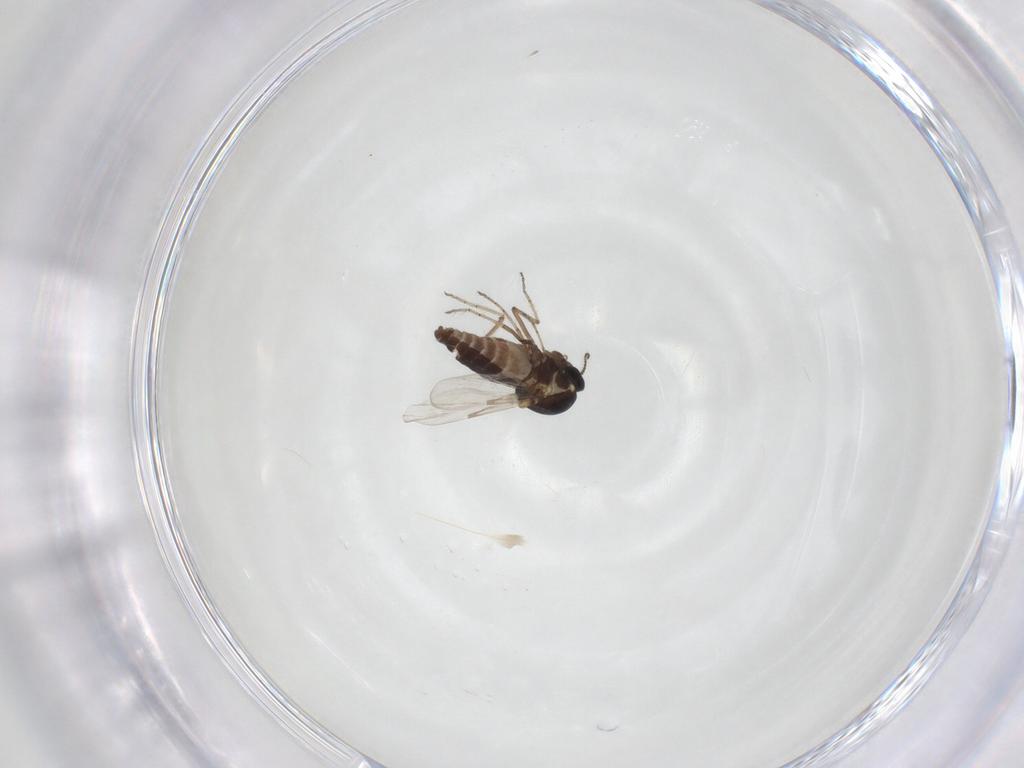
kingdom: Animalia
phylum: Arthropoda
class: Insecta
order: Diptera
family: Ceratopogonidae
